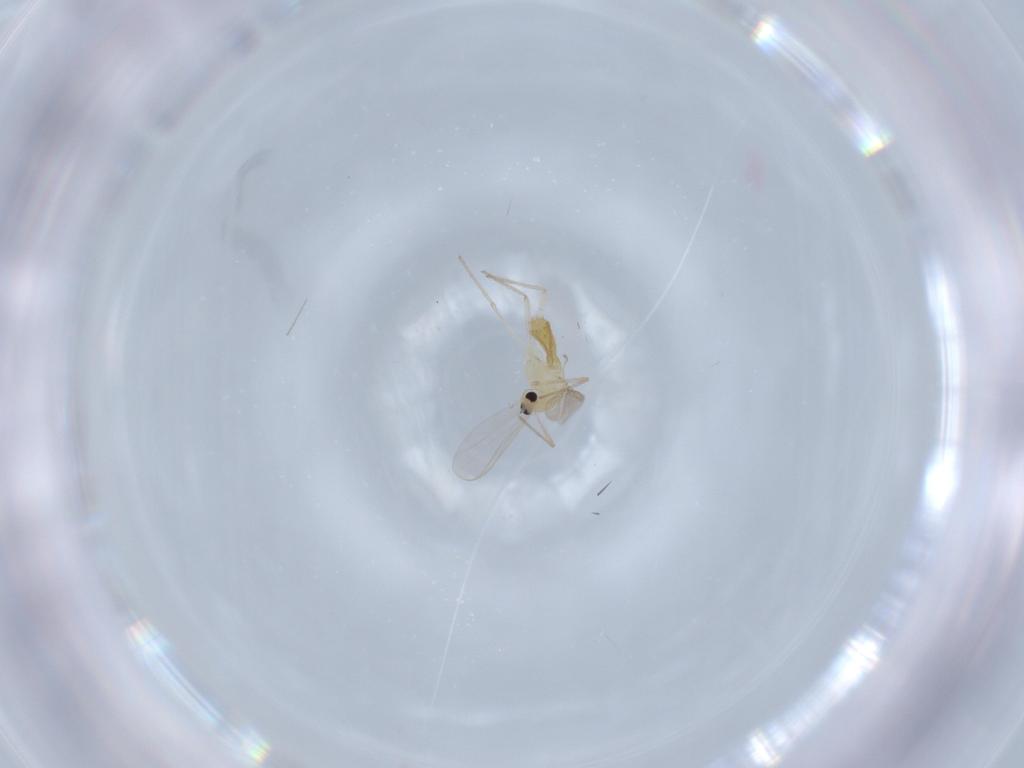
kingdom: Animalia
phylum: Arthropoda
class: Insecta
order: Diptera
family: Chironomidae
